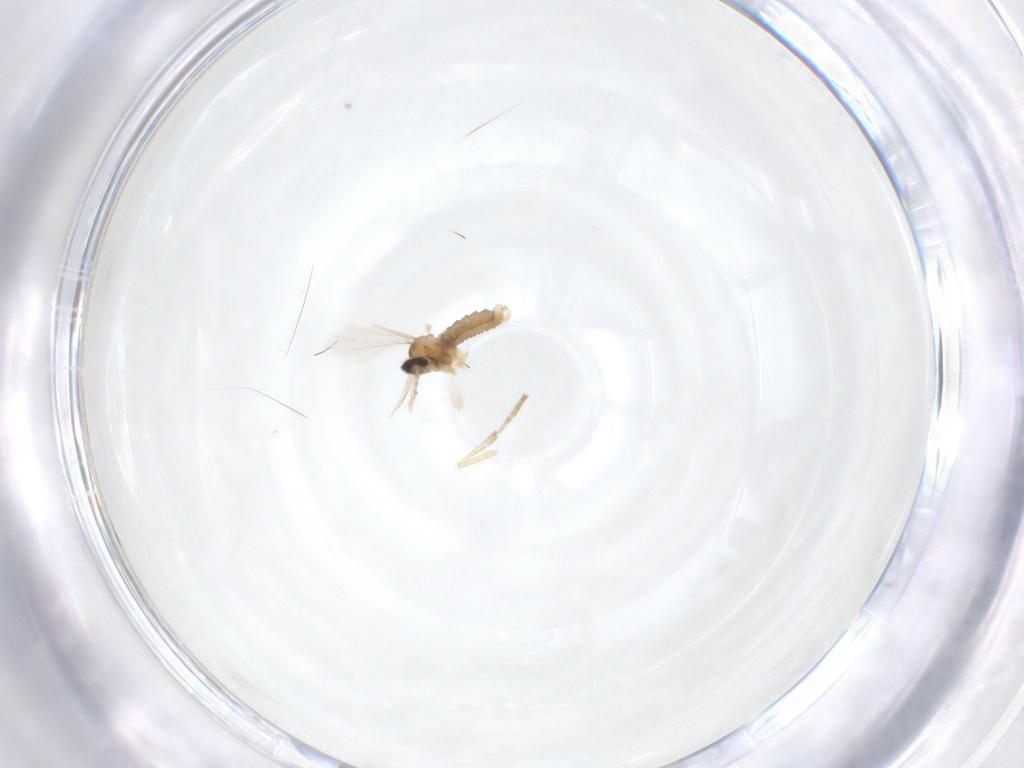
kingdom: Animalia
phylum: Arthropoda
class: Insecta
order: Diptera
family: Cecidomyiidae
